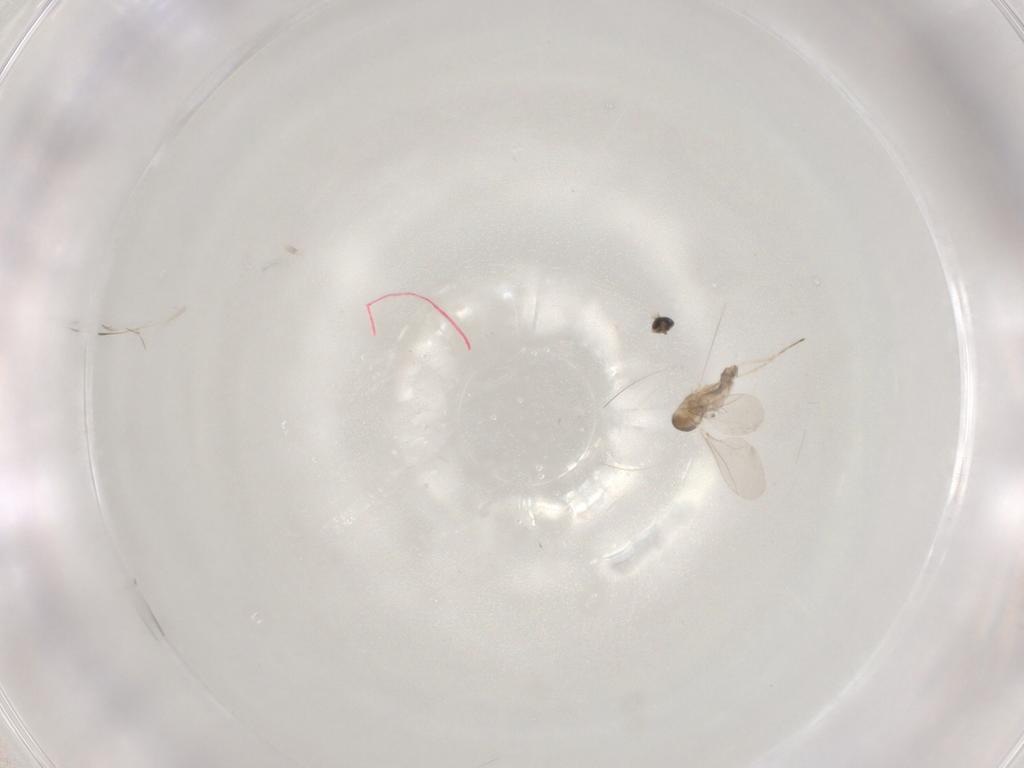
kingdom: Animalia
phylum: Arthropoda
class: Insecta
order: Diptera
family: Cecidomyiidae
